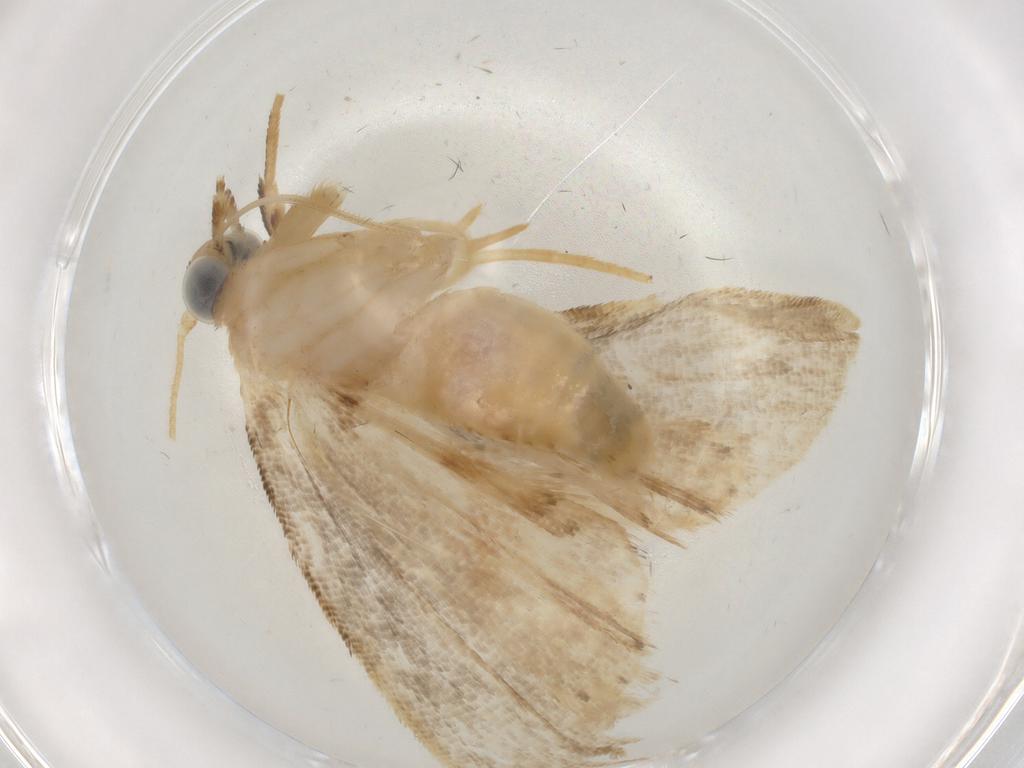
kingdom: Animalia
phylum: Arthropoda
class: Insecta
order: Lepidoptera
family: Erebidae
